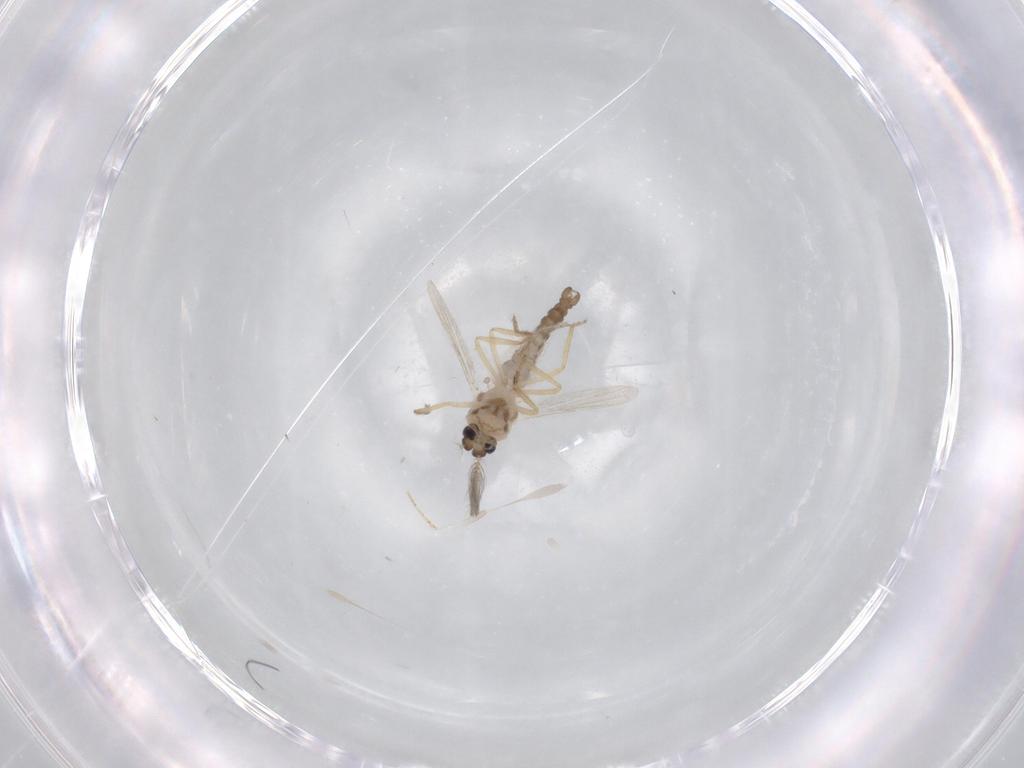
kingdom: Animalia
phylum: Arthropoda
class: Insecta
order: Diptera
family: Ceratopogonidae
